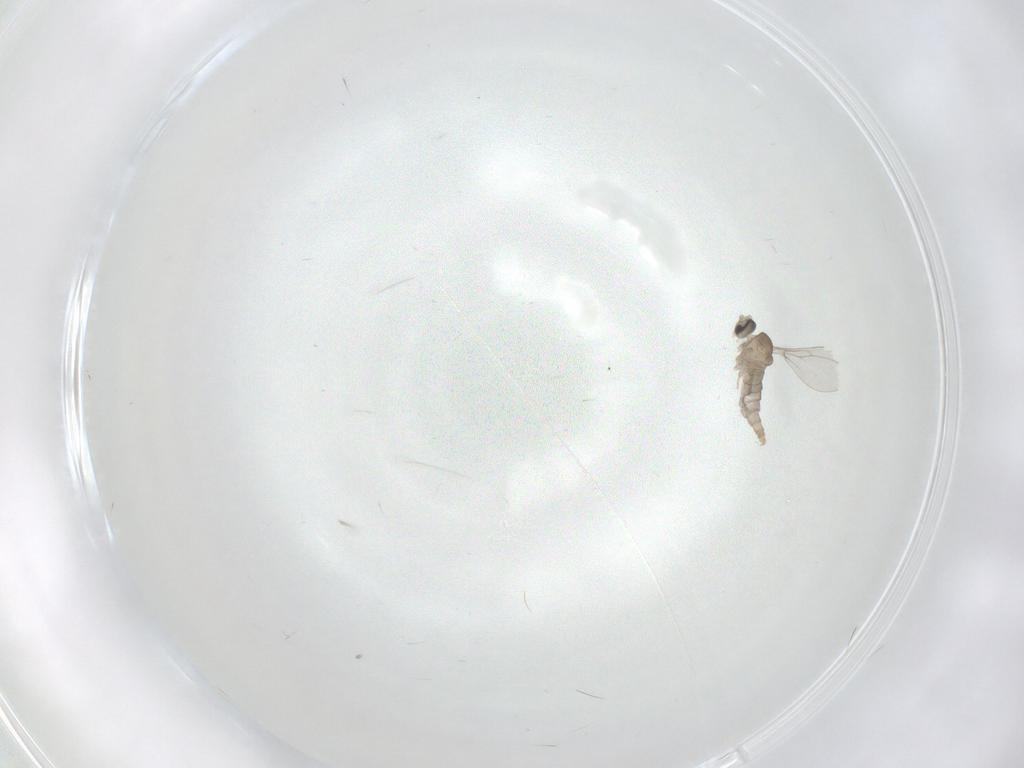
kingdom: Animalia
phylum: Arthropoda
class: Insecta
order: Diptera
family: Cecidomyiidae
